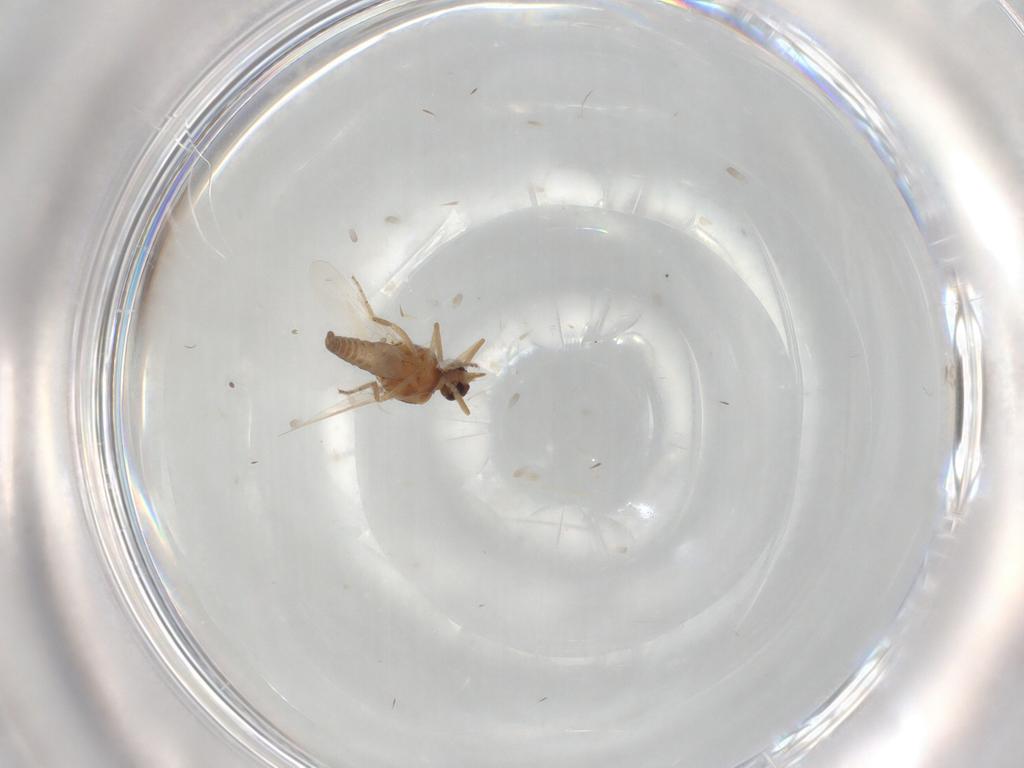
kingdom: Animalia
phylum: Arthropoda
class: Insecta
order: Diptera
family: Ceratopogonidae
